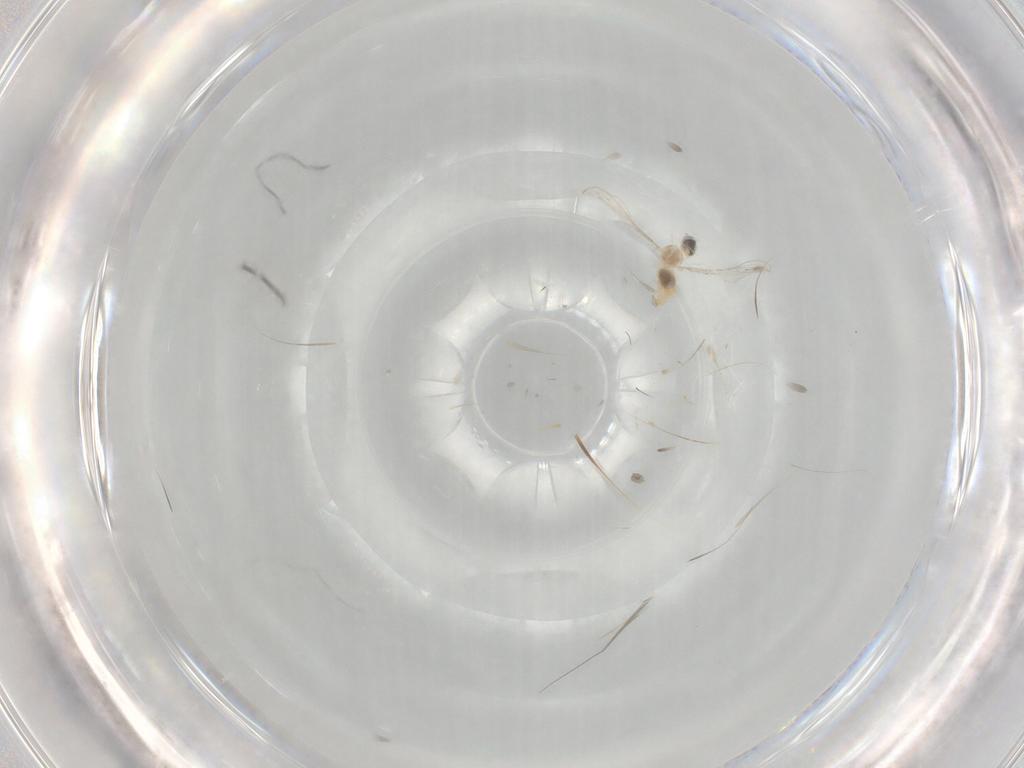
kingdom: Animalia
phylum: Arthropoda
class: Insecta
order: Diptera
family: Cecidomyiidae
